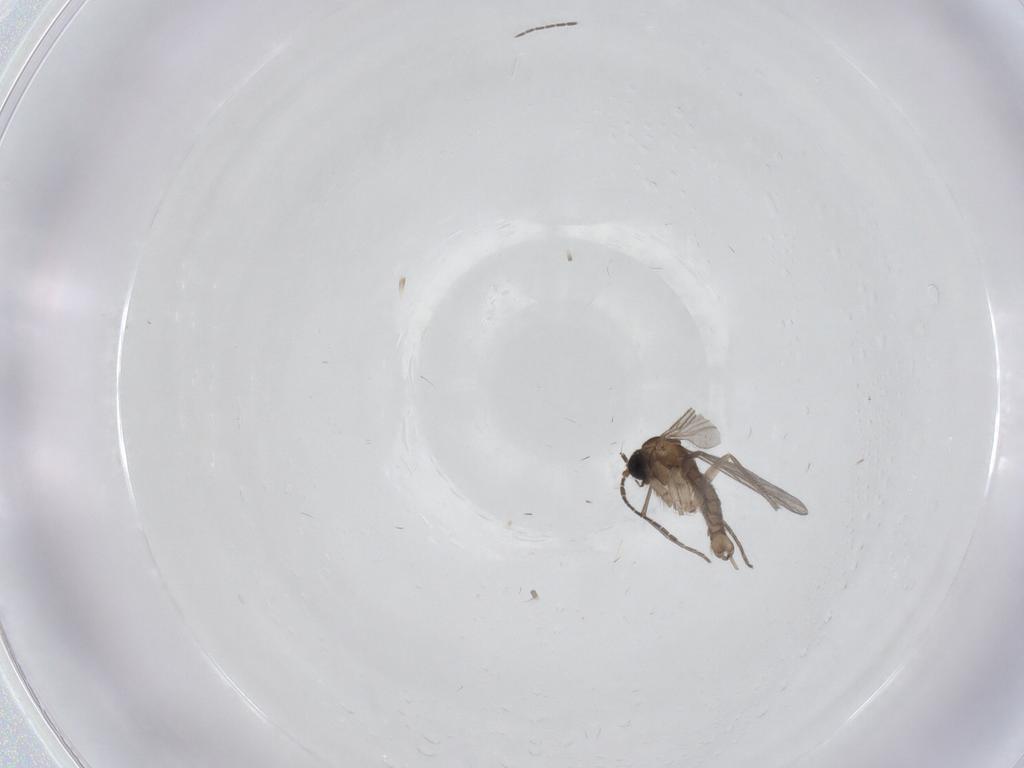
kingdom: Animalia
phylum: Arthropoda
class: Insecta
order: Diptera
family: Sciaridae
